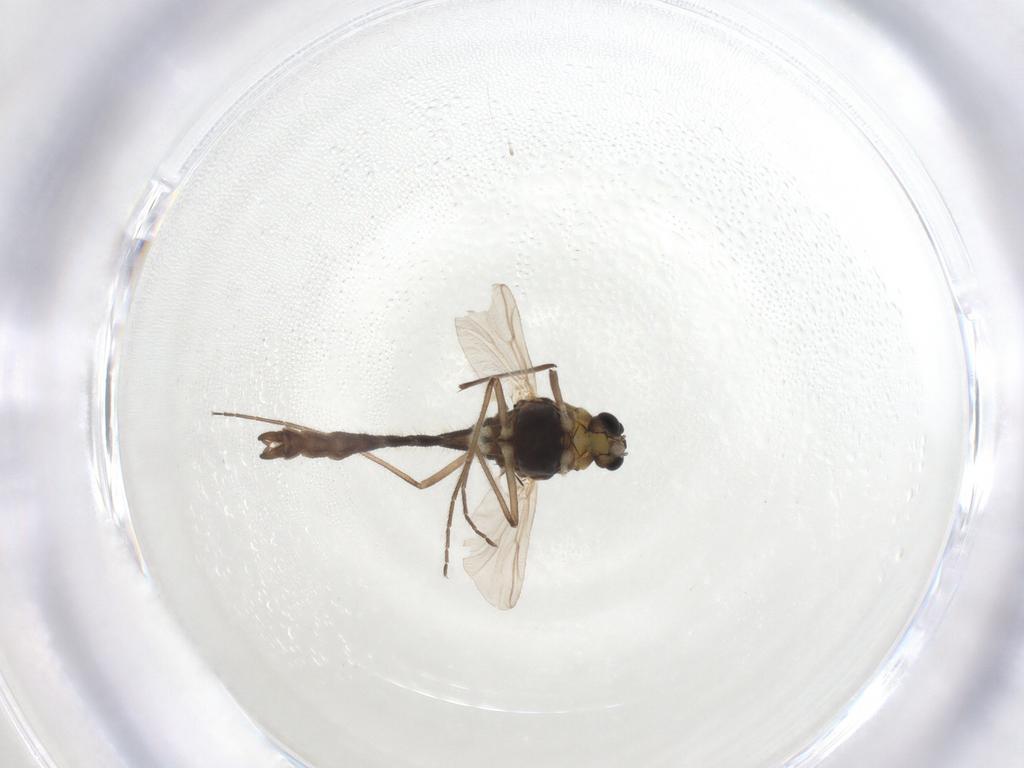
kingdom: Animalia
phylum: Arthropoda
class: Insecta
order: Diptera
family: Chironomidae
